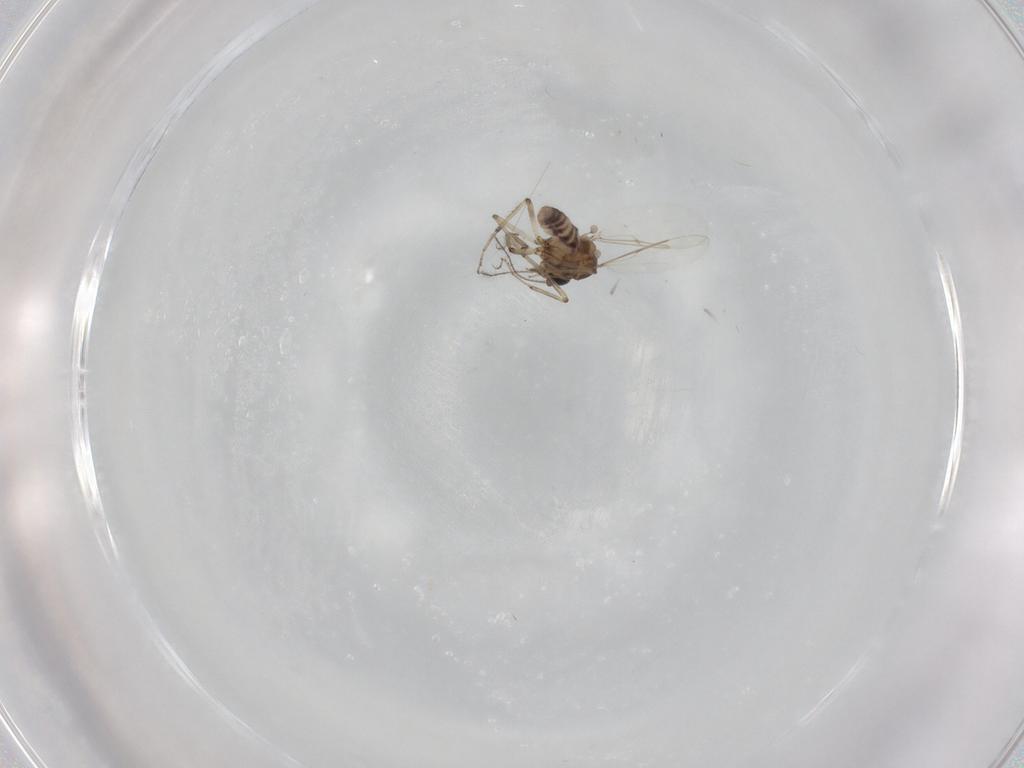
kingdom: Animalia
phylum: Arthropoda
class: Insecta
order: Diptera
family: Ceratopogonidae
